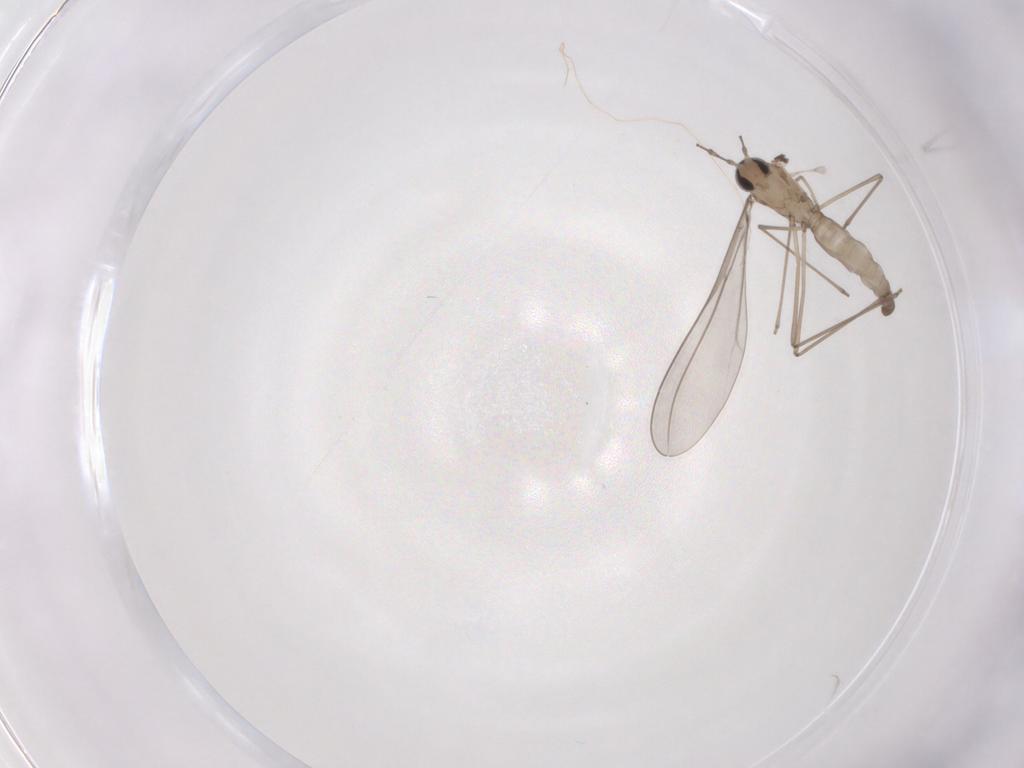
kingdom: Animalia
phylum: Arthropoda
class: Insecta
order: Diptera
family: Cecidomyiidae
